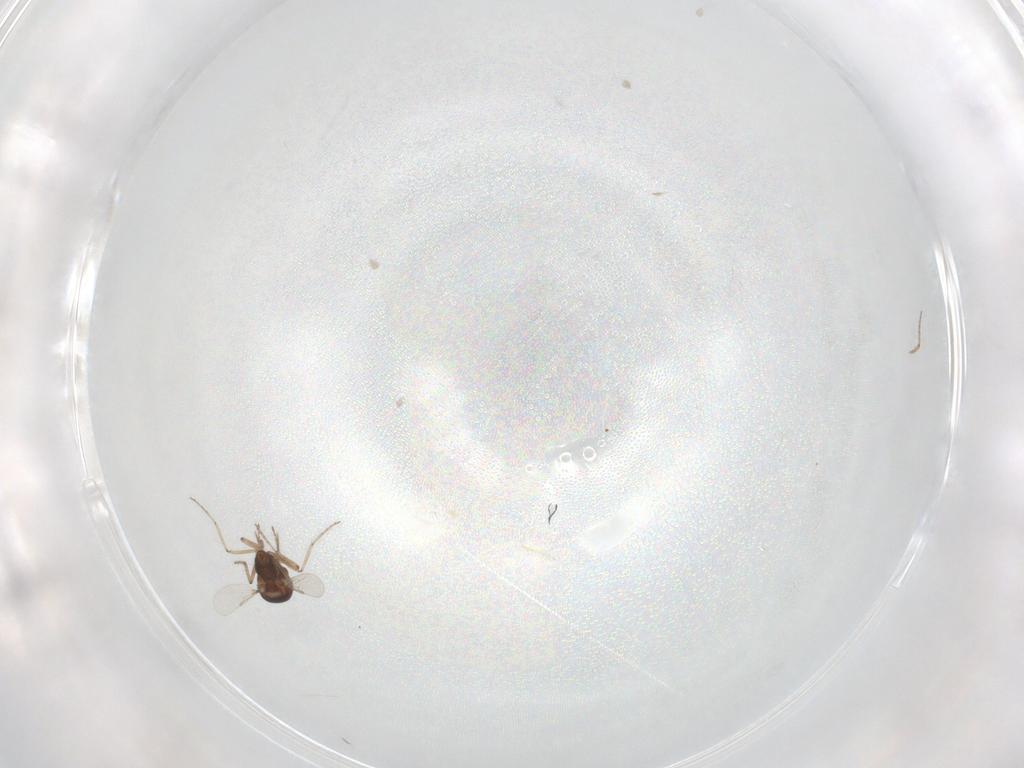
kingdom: Animalia
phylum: Arthropoda
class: Insecta
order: Diptera
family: Ceratopogonidae
